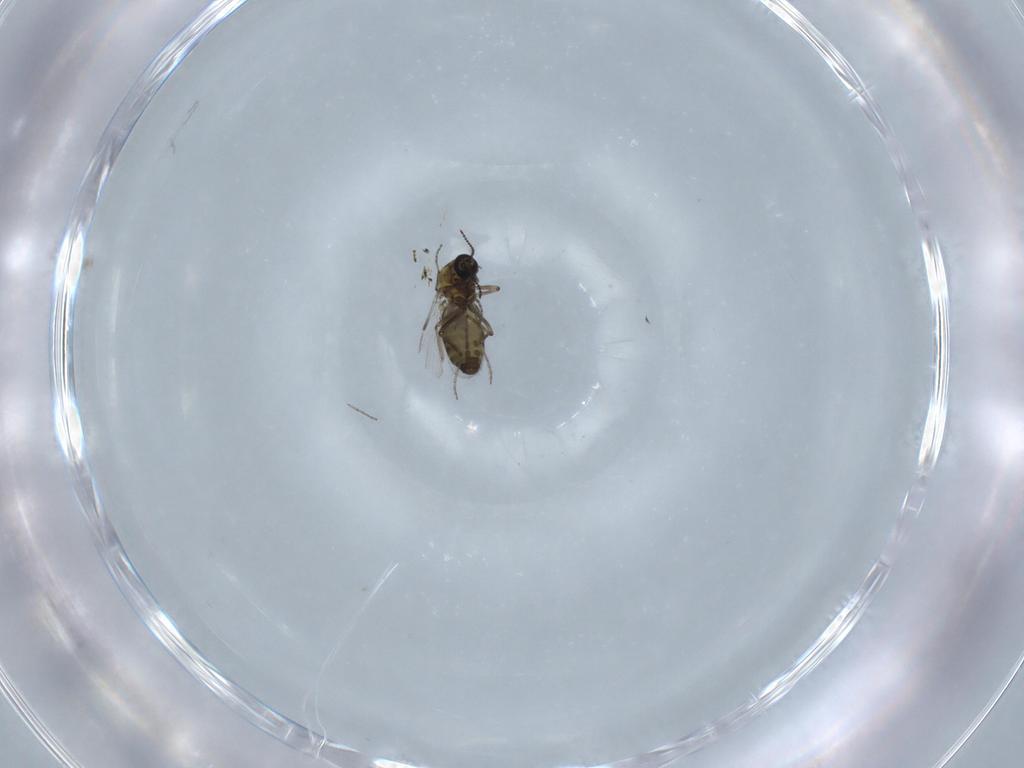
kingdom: Animalia
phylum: Arthropoda
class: Insecta
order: Diptera
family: Ceratopogonidae
